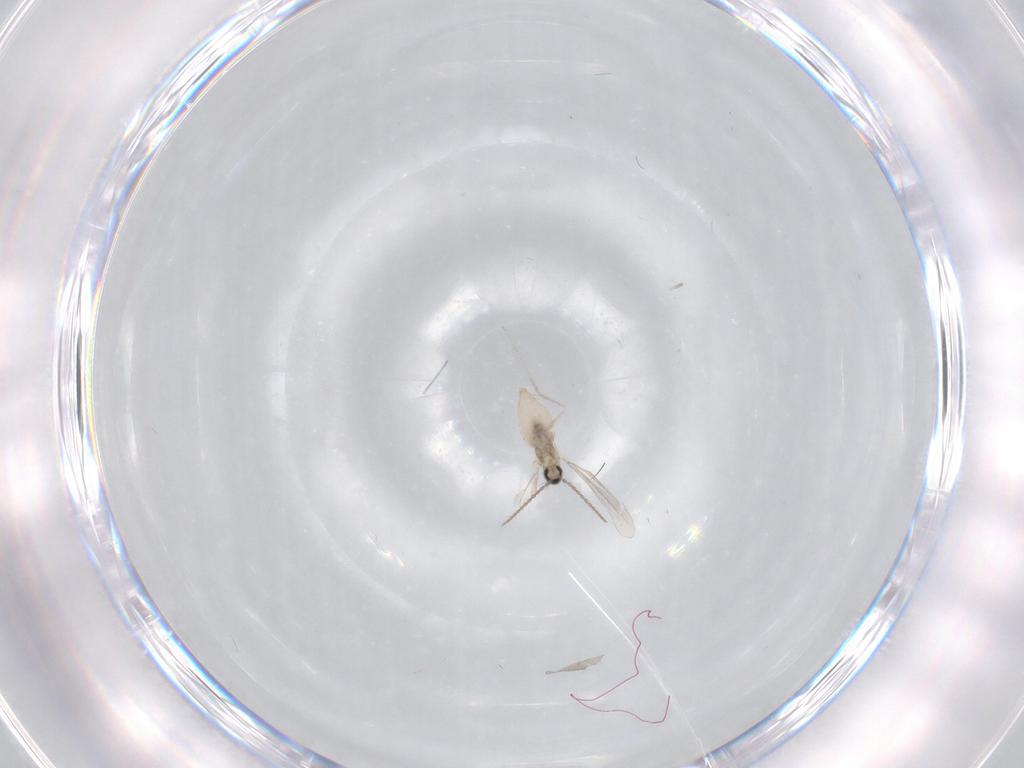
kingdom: Animalia
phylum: Arthropoda
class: Insecta
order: Diptera
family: Cecidomyiidae
